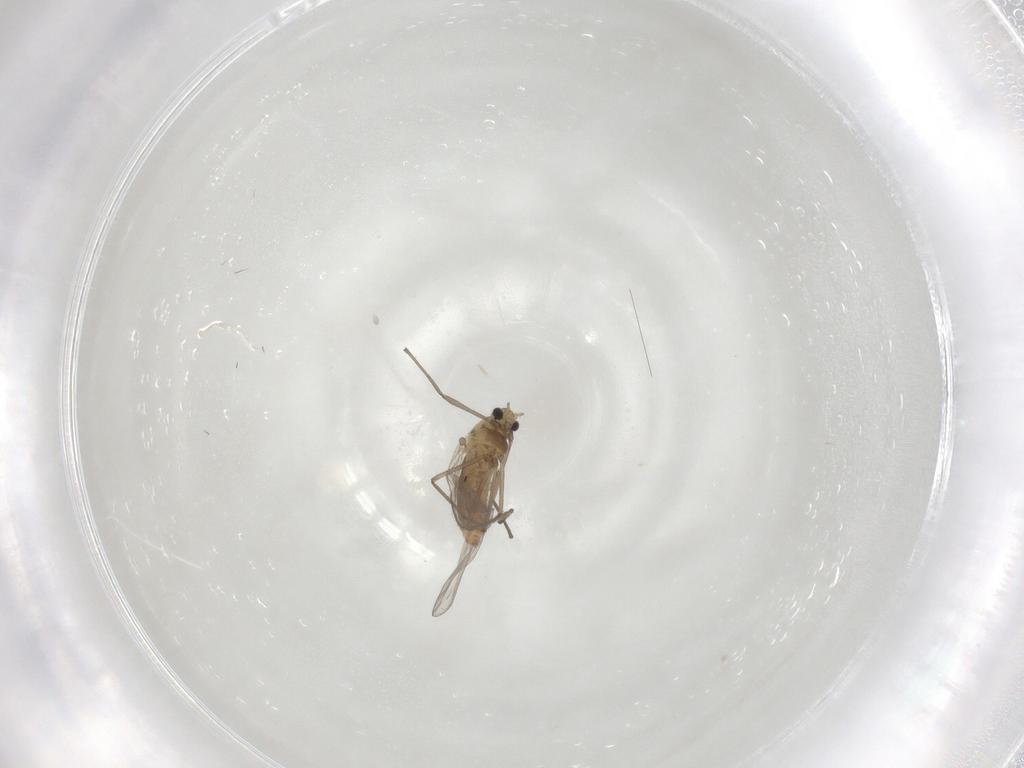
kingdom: Animalia
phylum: Arthropoda
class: Insecta
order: Diptera
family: Chironomidae
